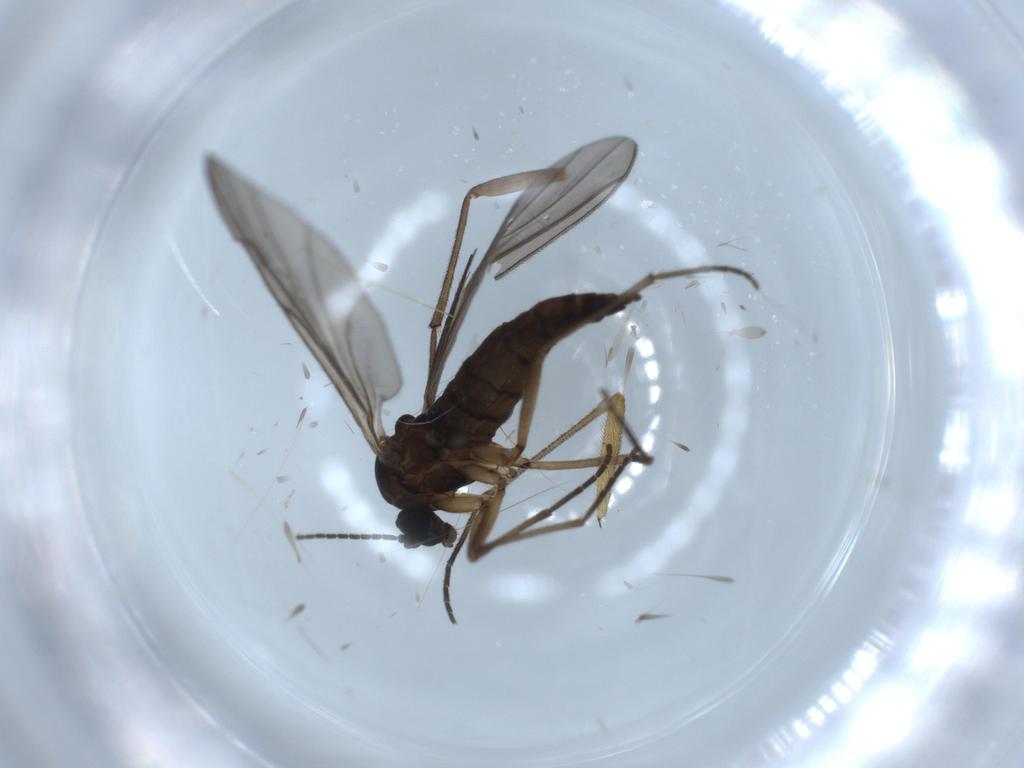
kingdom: Animalia
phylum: Arthropoda
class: Insecta
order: Diptera
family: Sciaridae
